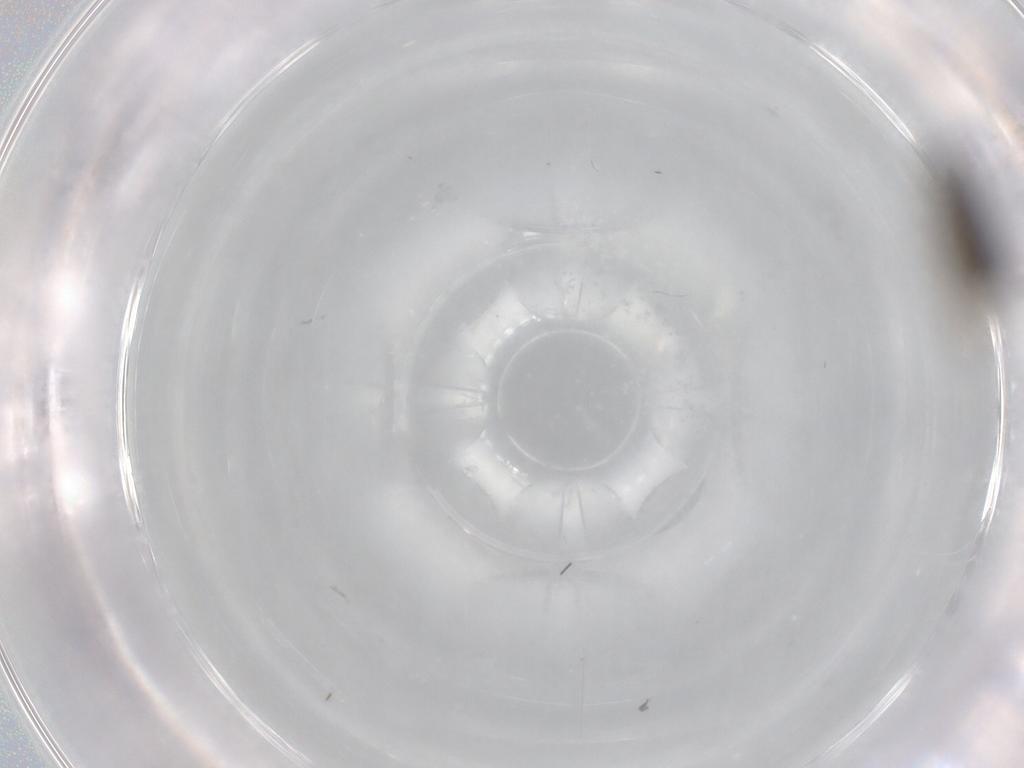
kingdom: Animalia
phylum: Arthropoda
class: Insecta
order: Diptera
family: Limoniidae
